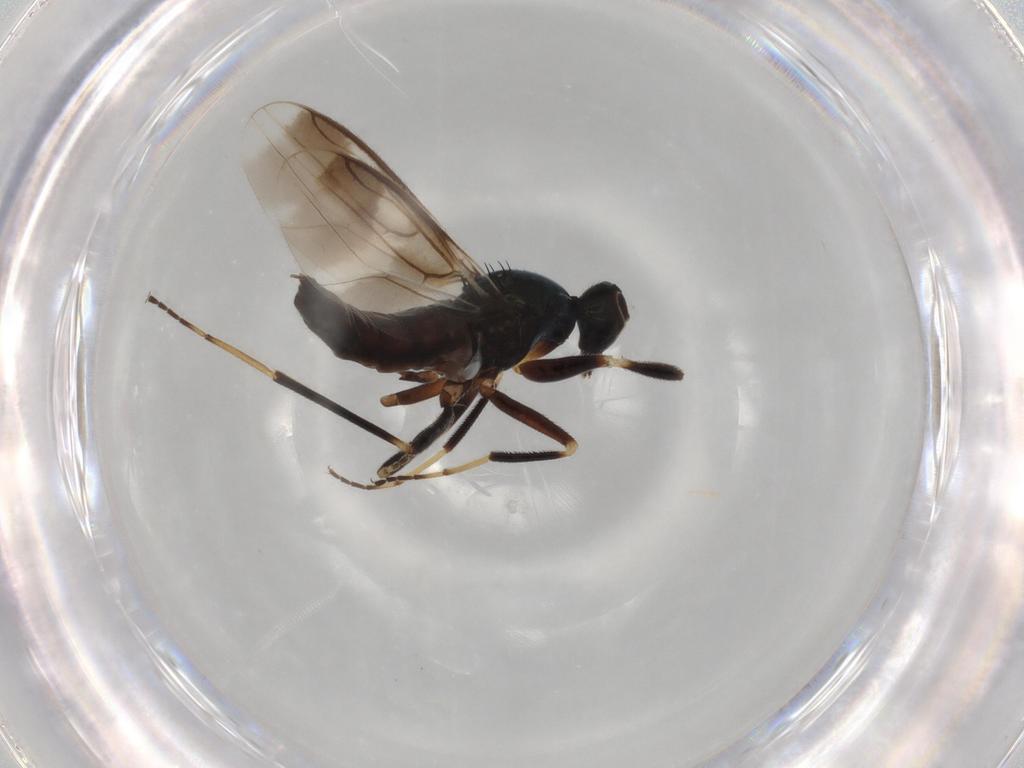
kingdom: Animalia
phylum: Arthropoda
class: Insecta
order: Diptera
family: Hybotidae
